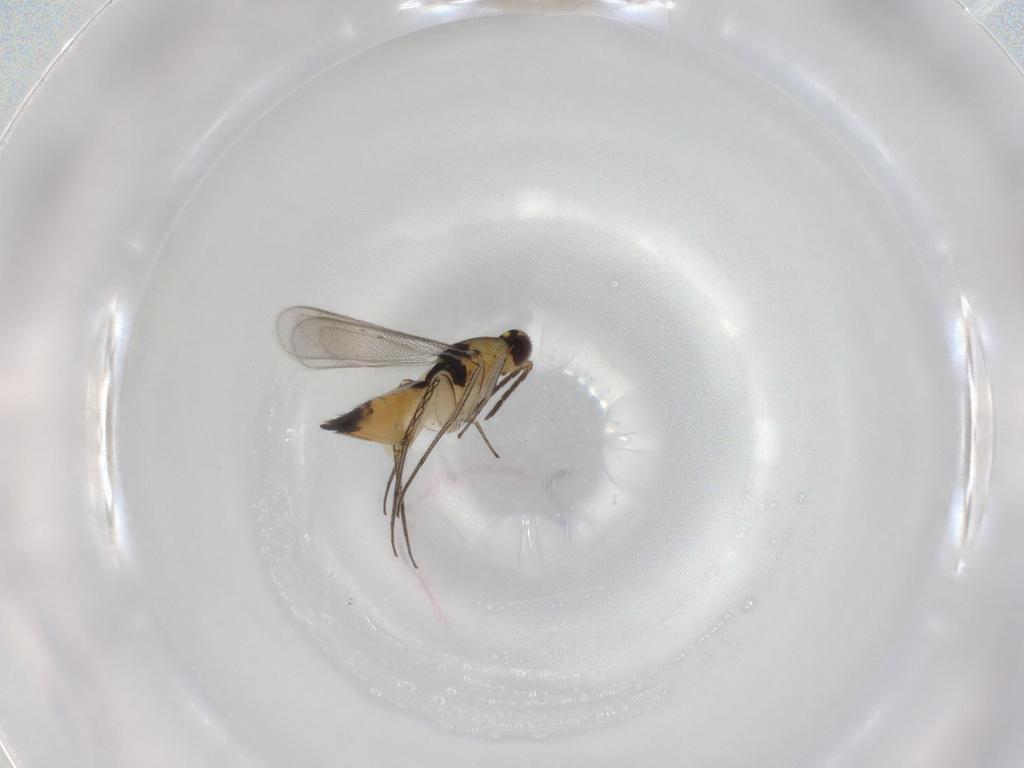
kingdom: Animalia
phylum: Arthropoda
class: Insecta
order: Hymenoptera
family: Eulophidae
